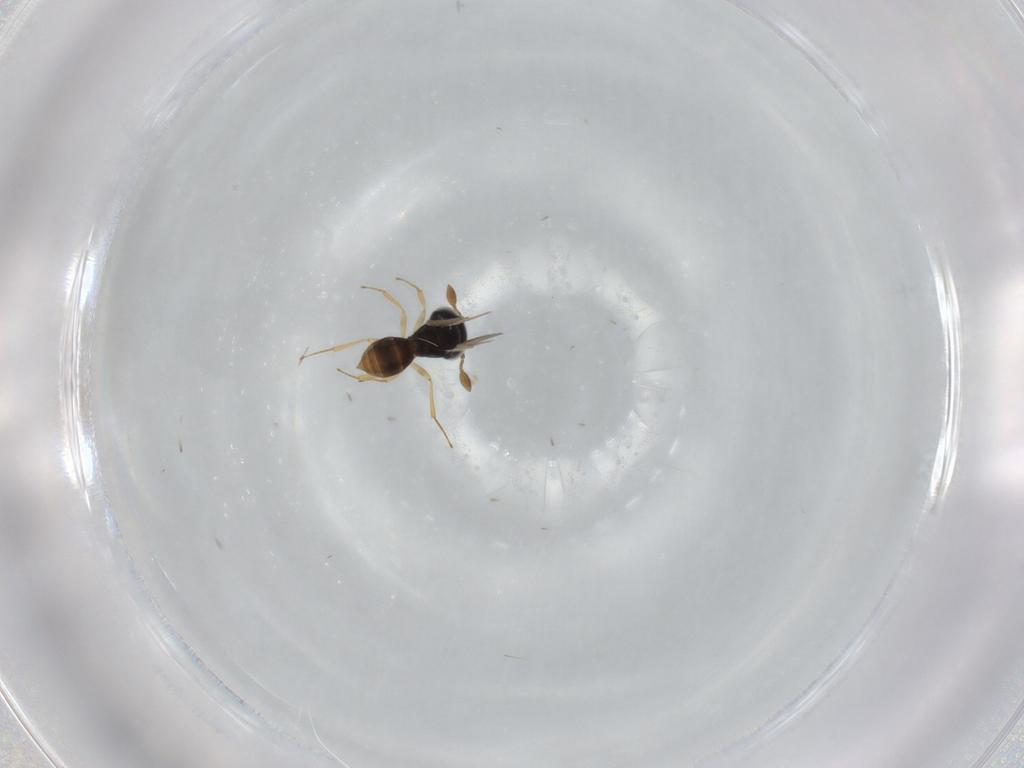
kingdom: Animalia
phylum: Arthropoda
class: Insecta
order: Hymenoptera
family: Scelionidae
